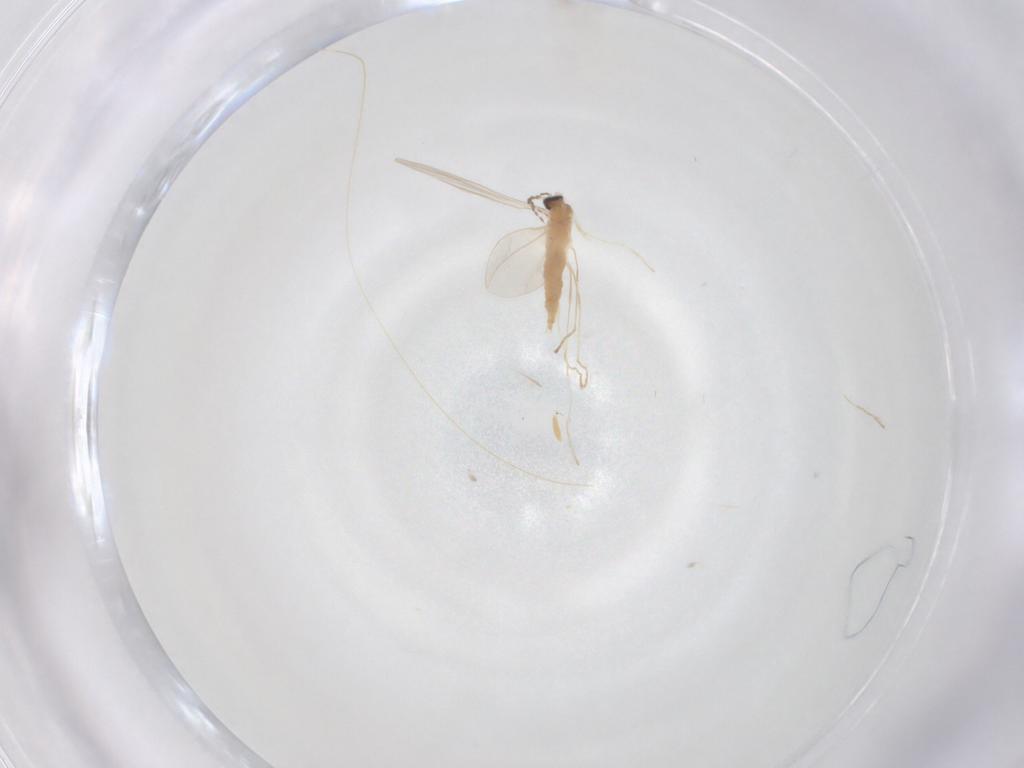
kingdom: Animalia
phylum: Arthropoda
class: Insecta
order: Diptera
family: Cecidomyiidae
